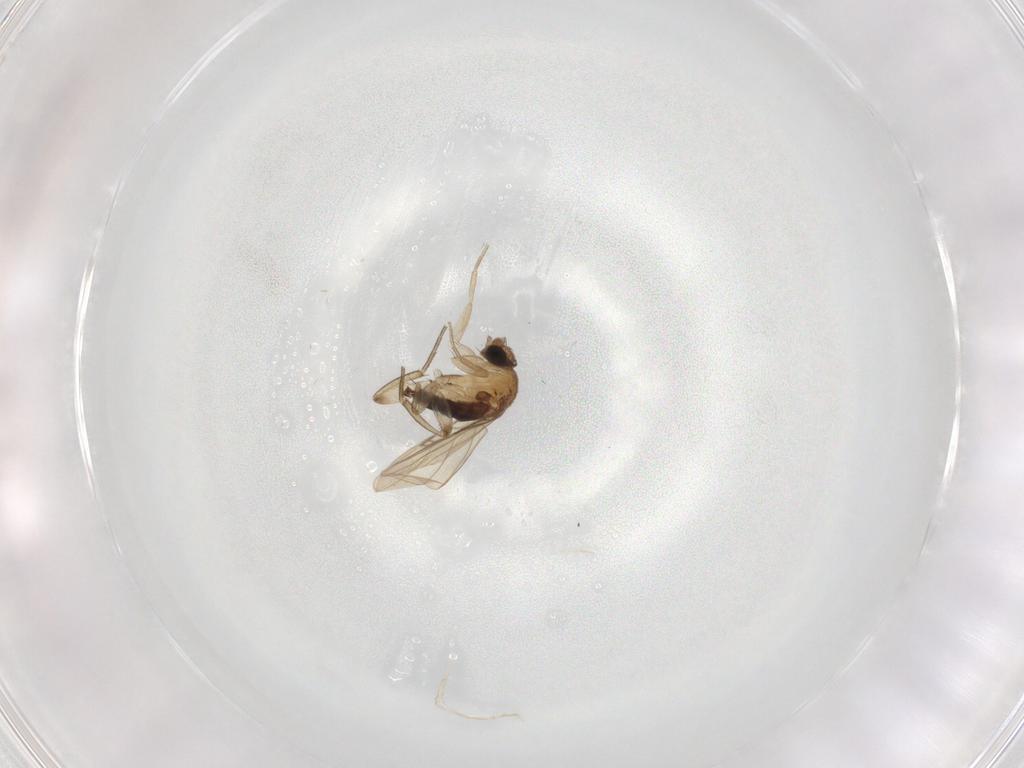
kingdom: Animalia
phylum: Arthropoda
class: Insecta
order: Diptera
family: Phoridae
